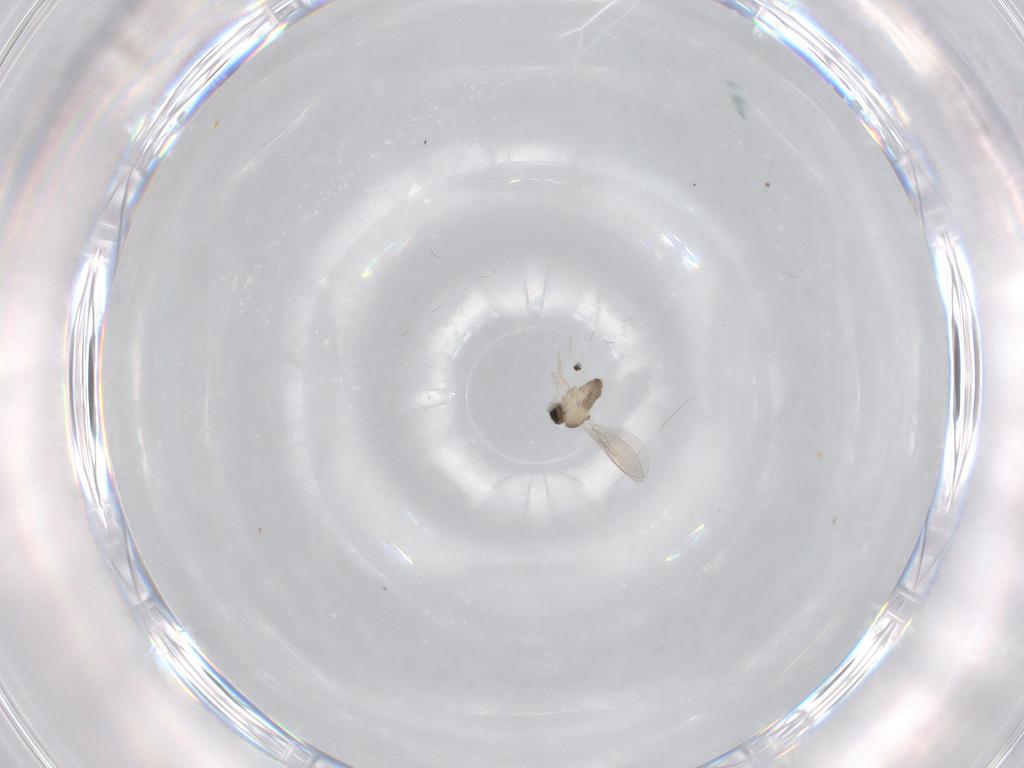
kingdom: Animalia
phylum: Arthropoda
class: Insecta
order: Diptera
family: Cecidomyiidae
